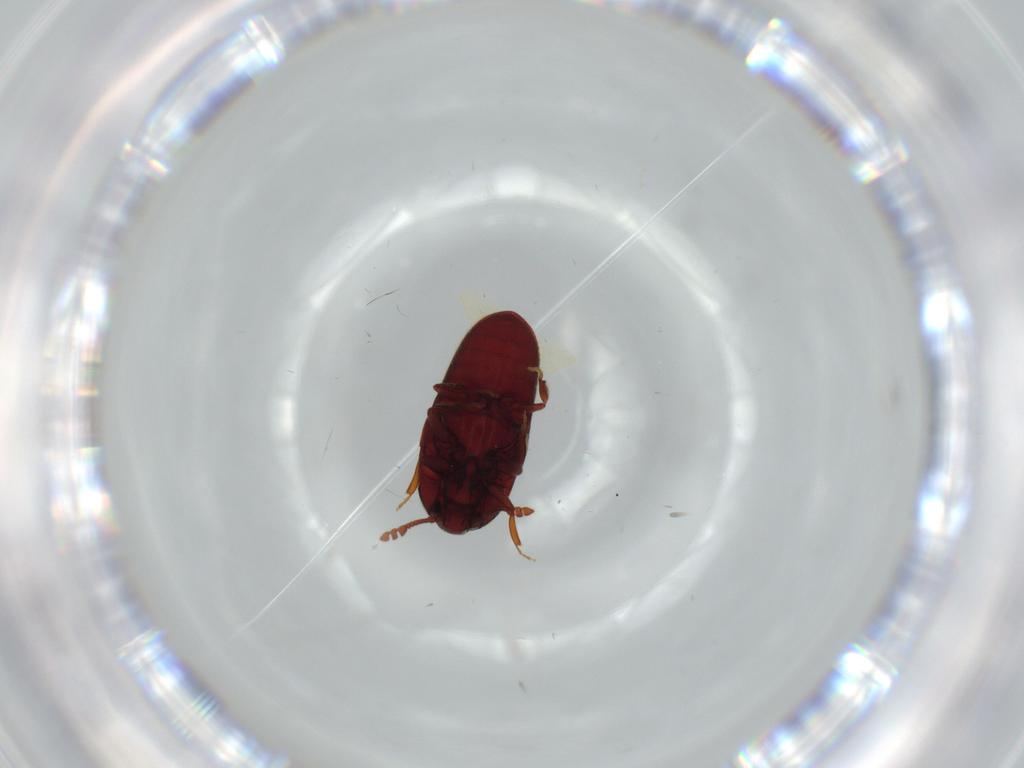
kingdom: Animalia
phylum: Arthropoda
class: Insecta
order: Coleoptera
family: Throscidae
